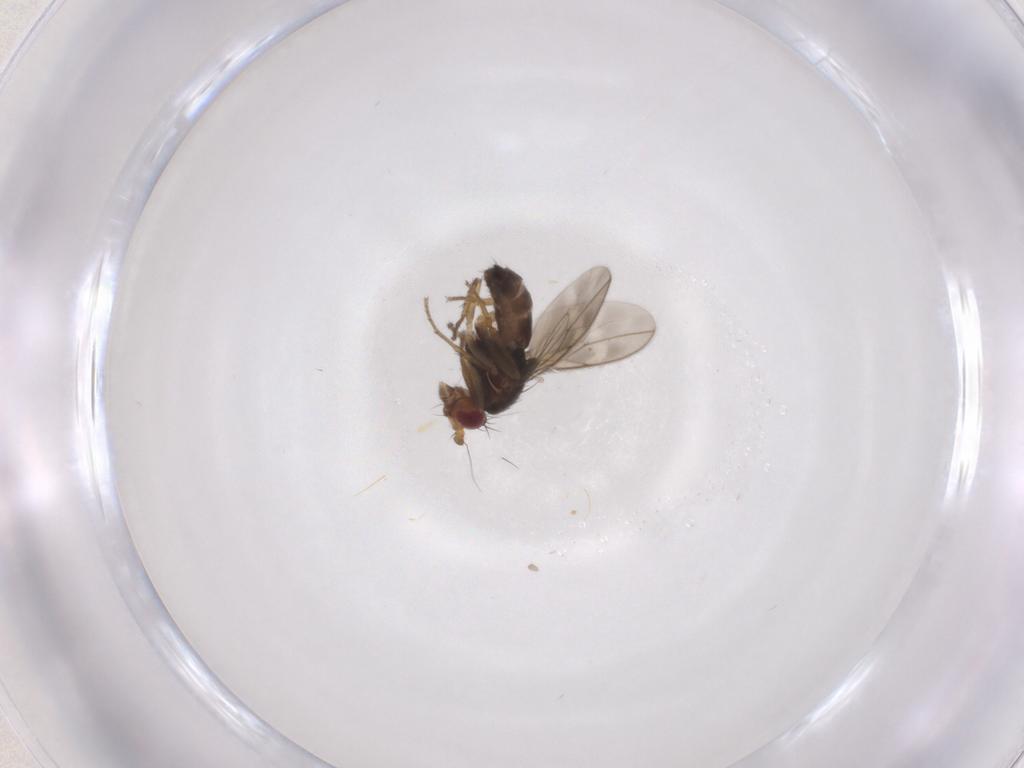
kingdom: Animalia
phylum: Arthropoda
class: Insecta
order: Diptera
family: Sphaeroceridae
